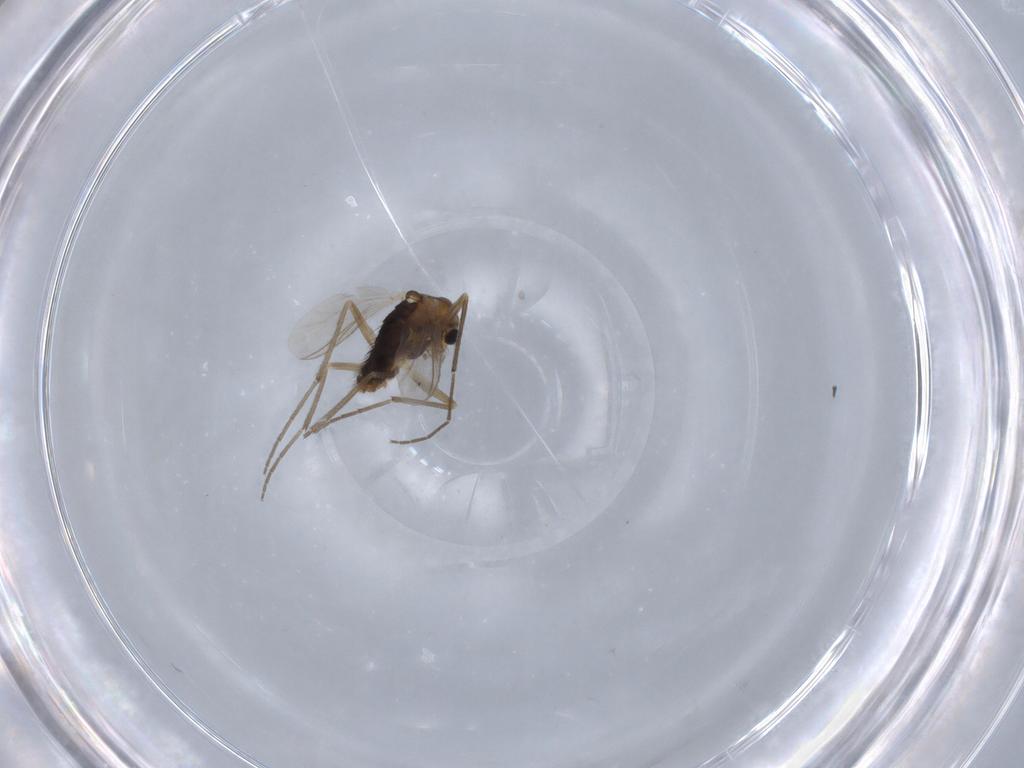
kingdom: Animalia
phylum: Arthropoda
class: Insecta
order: Diptera
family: Chironomidae
